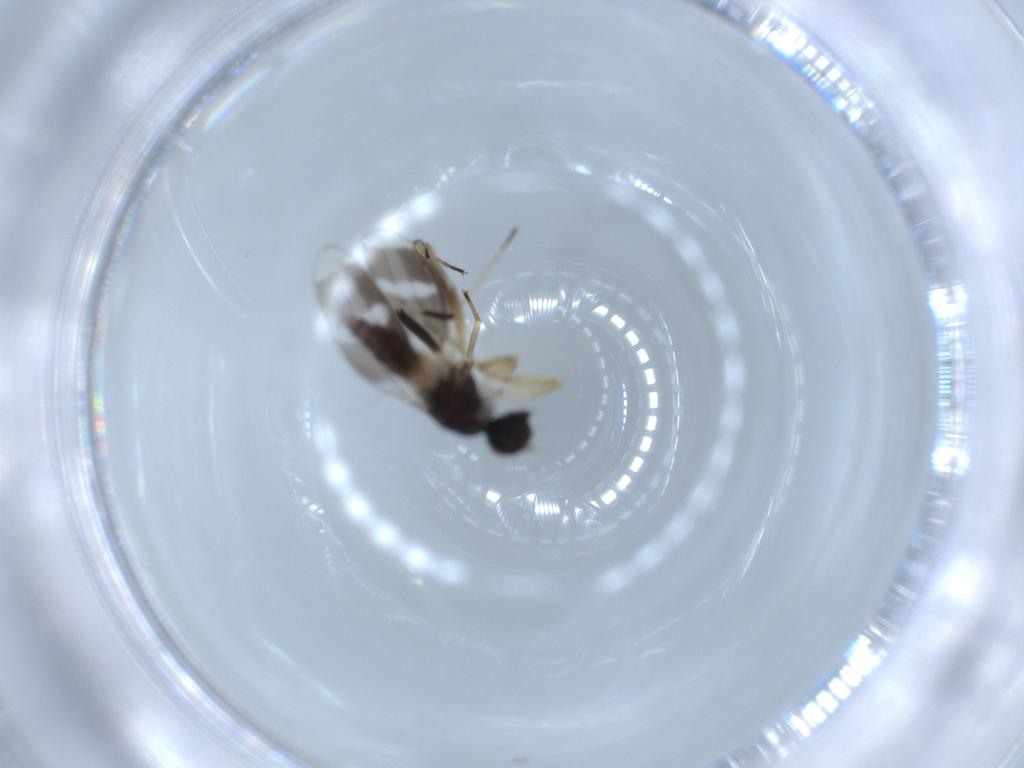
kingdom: Animalia
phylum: Arthropoda
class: Insecta
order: Diptera
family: Hybotidae
